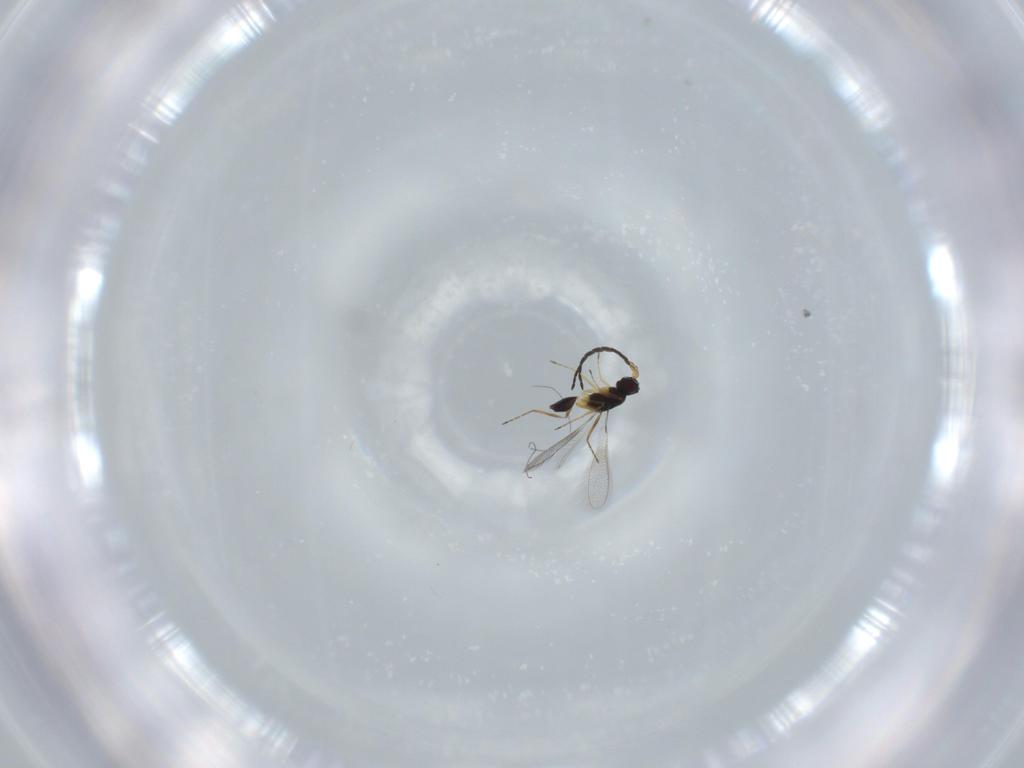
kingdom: Animalia
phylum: Arthropoda
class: Insecta
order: Hymenoptera
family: Mymaridae
